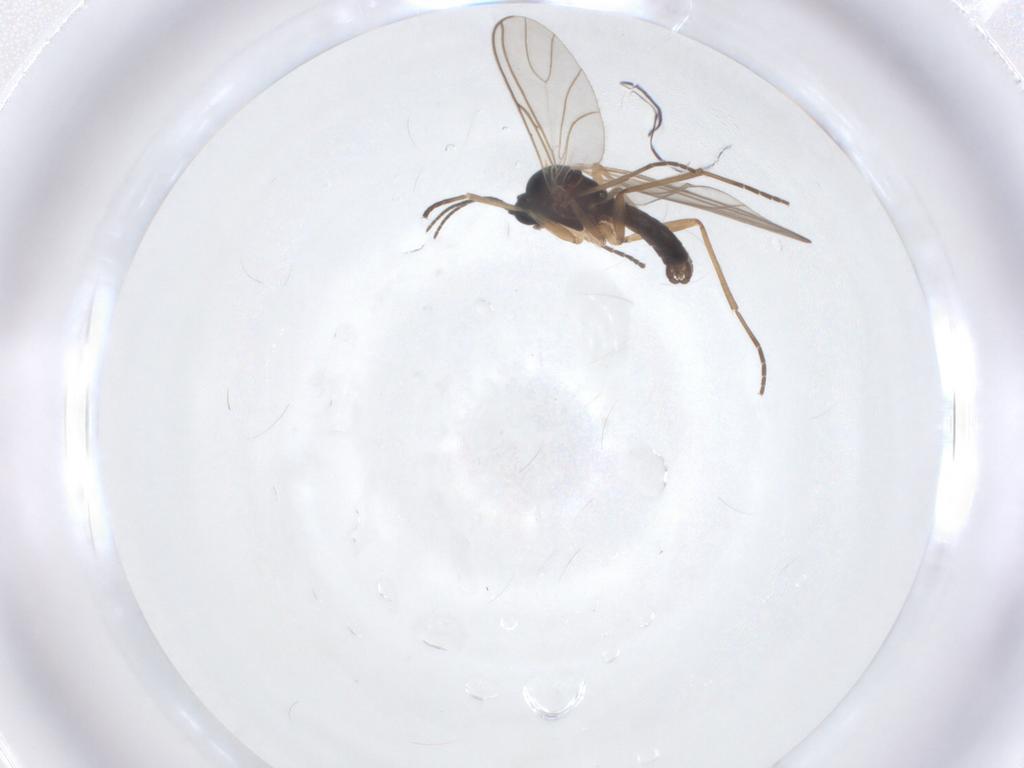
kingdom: Animalia
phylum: Arthropoda
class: Insecta
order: Diptera
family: Sciaridae
